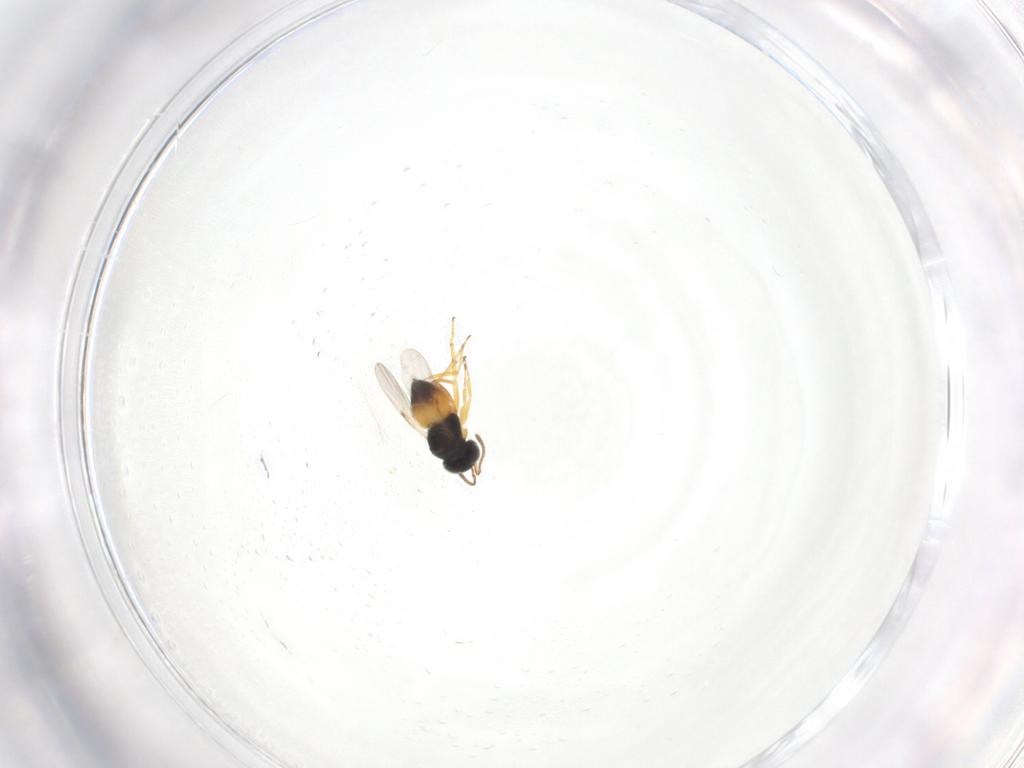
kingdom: Animalia
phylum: Arthropoda
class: Insecta
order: Hymenoptera
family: Encyrtidae
